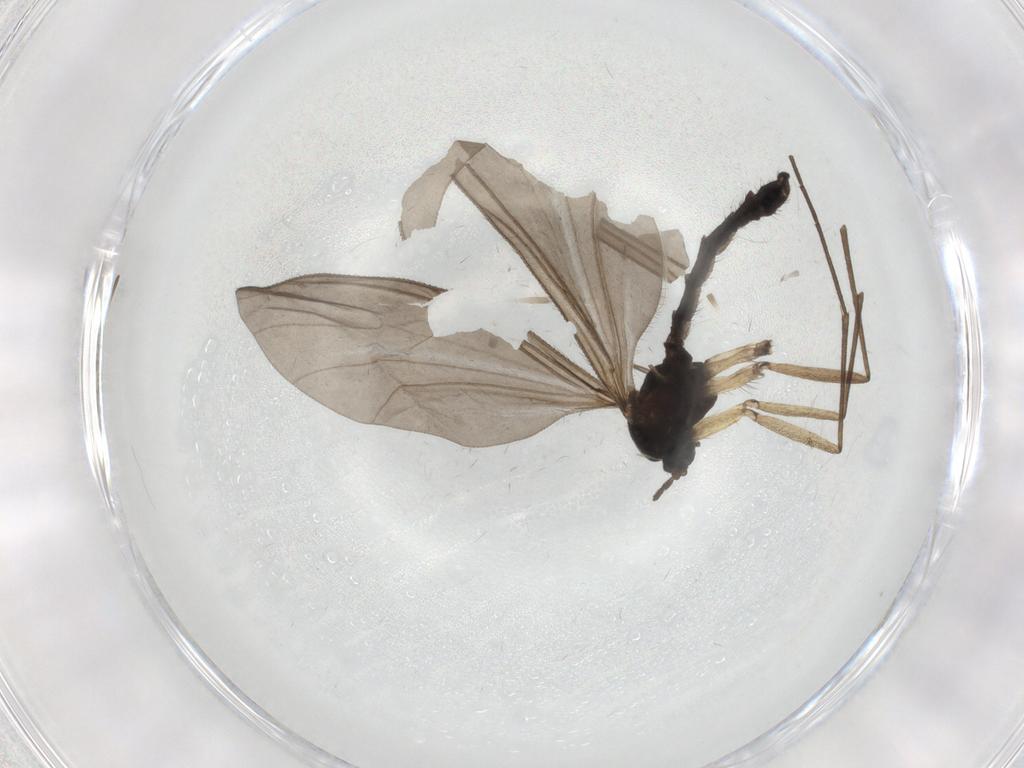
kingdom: Animalia
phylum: Arthropoda
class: Insecta
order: Diptera
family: Sciaridae
